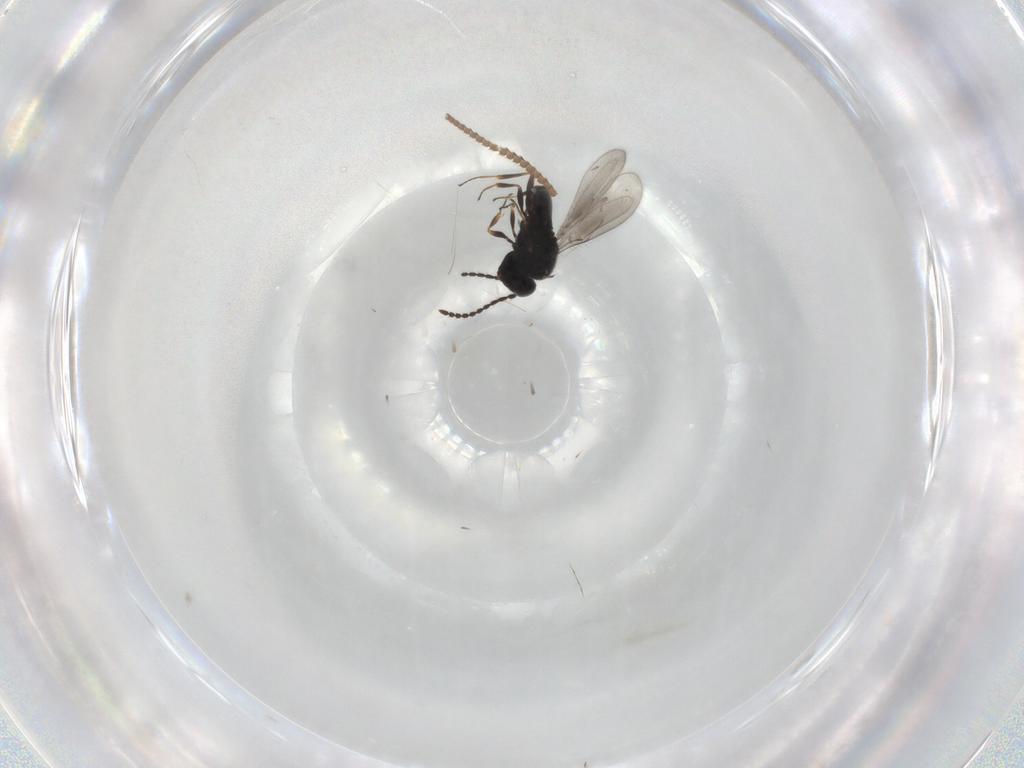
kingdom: Animalia
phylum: Arthropoda
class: Insecta
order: Hymenoptera
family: Scelionidae
